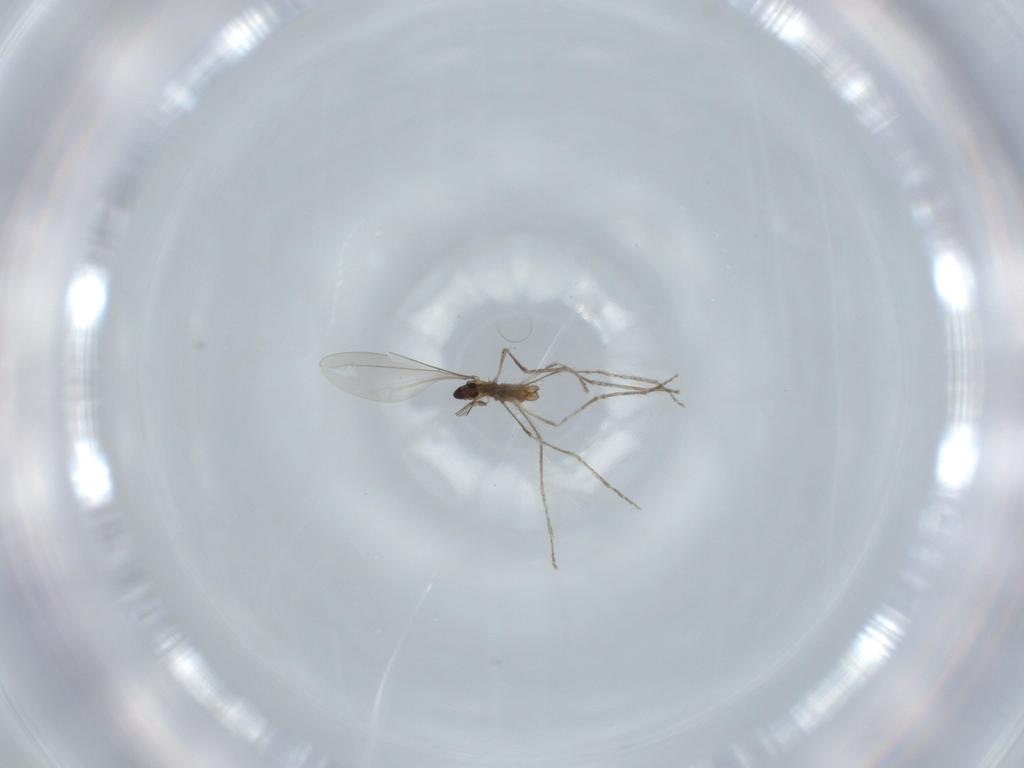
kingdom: Animalia
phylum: Arthropoda
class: Insecta
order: Diptera
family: Cecidomyiidae
